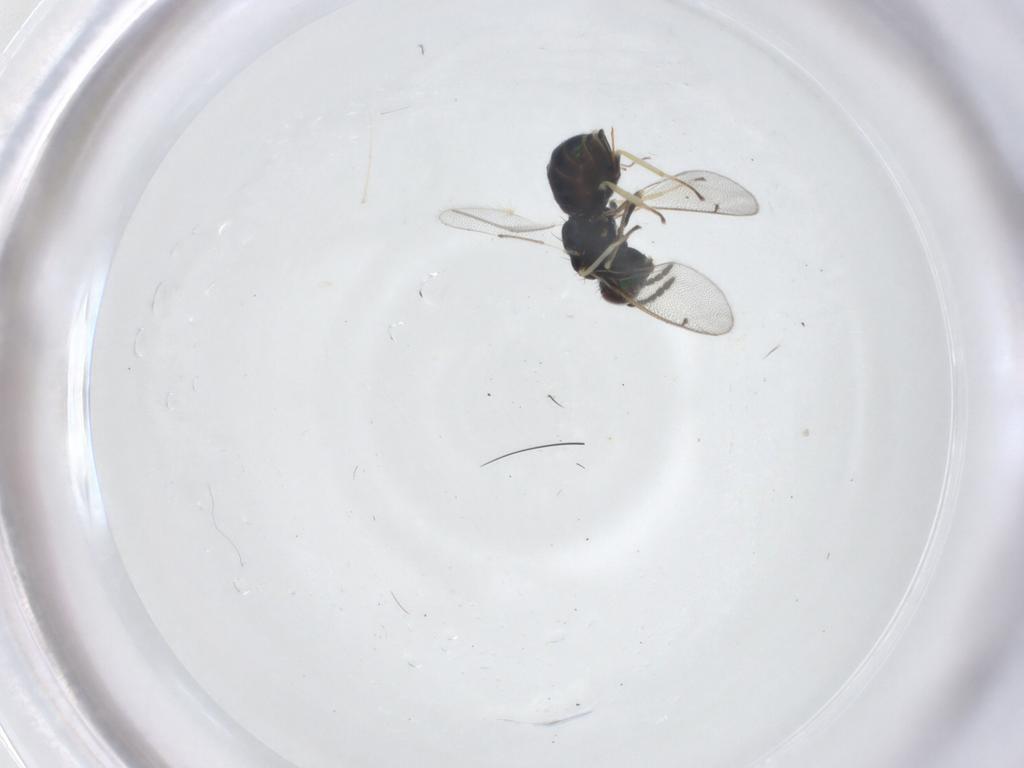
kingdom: Animalia
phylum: Arthropoda
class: Insecta
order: Hymenoptera
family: Eulophidae
